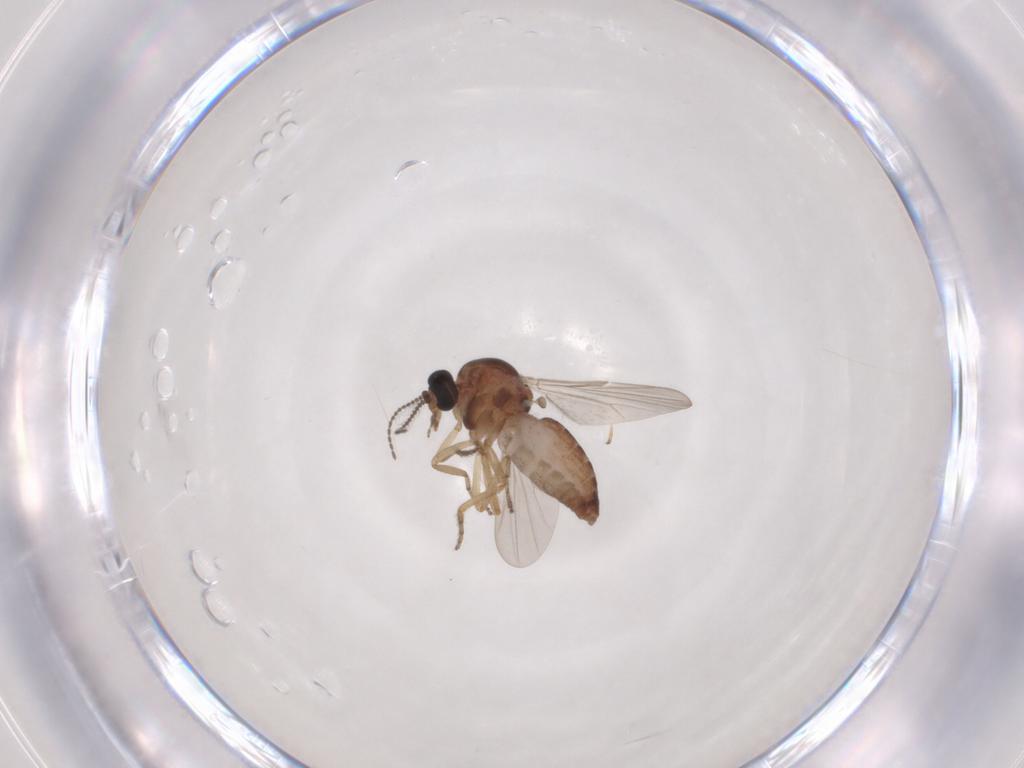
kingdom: Animalia
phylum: Arthropoda
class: Insecta
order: Diptera
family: Ceratopogonidae
